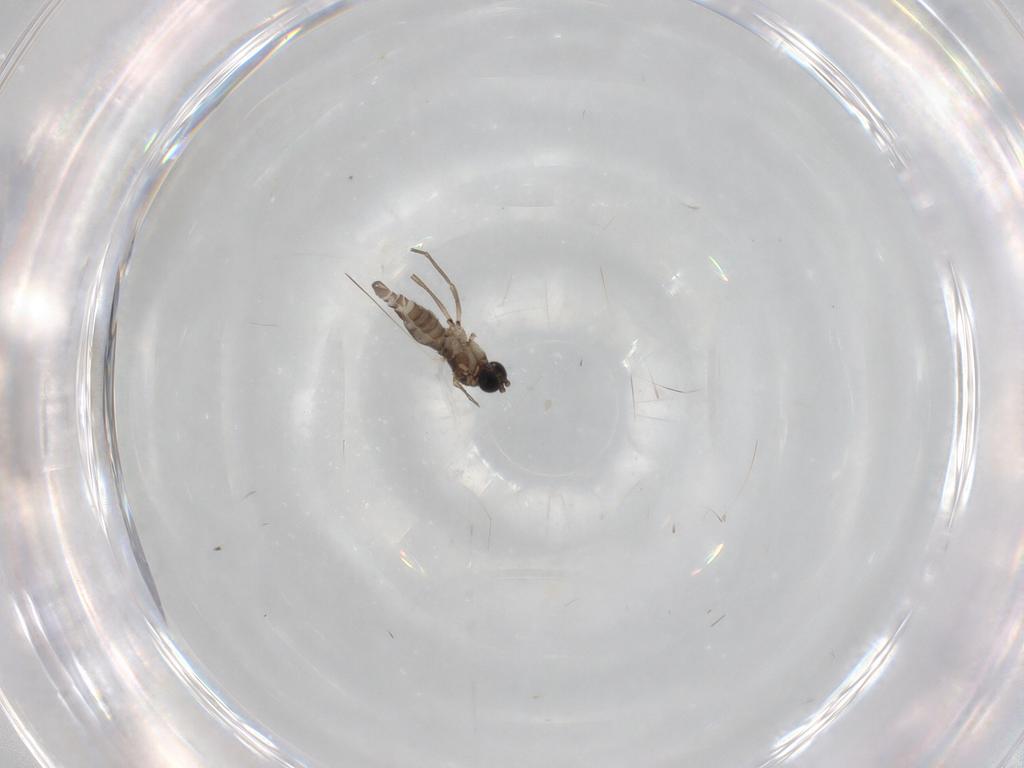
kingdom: Animalia
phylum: Arthropoda
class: Insecta
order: Diptera
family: Sciaridae
